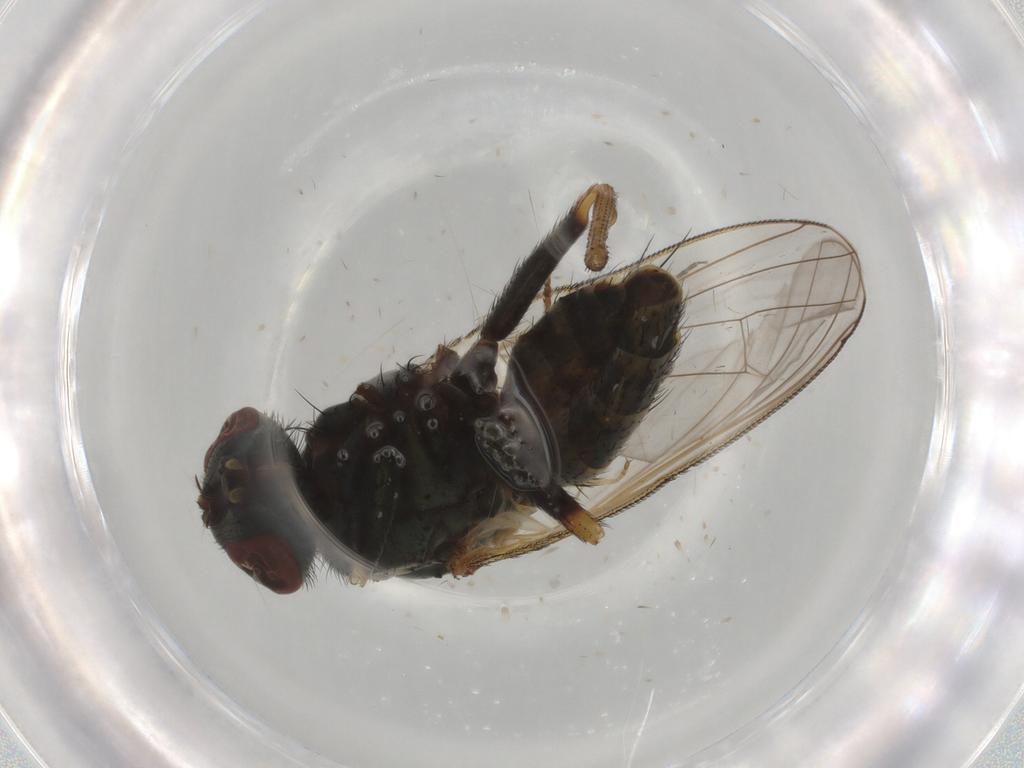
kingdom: Animalia
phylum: Arthropoda
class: Insecta
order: Diptera
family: Chloropidae
